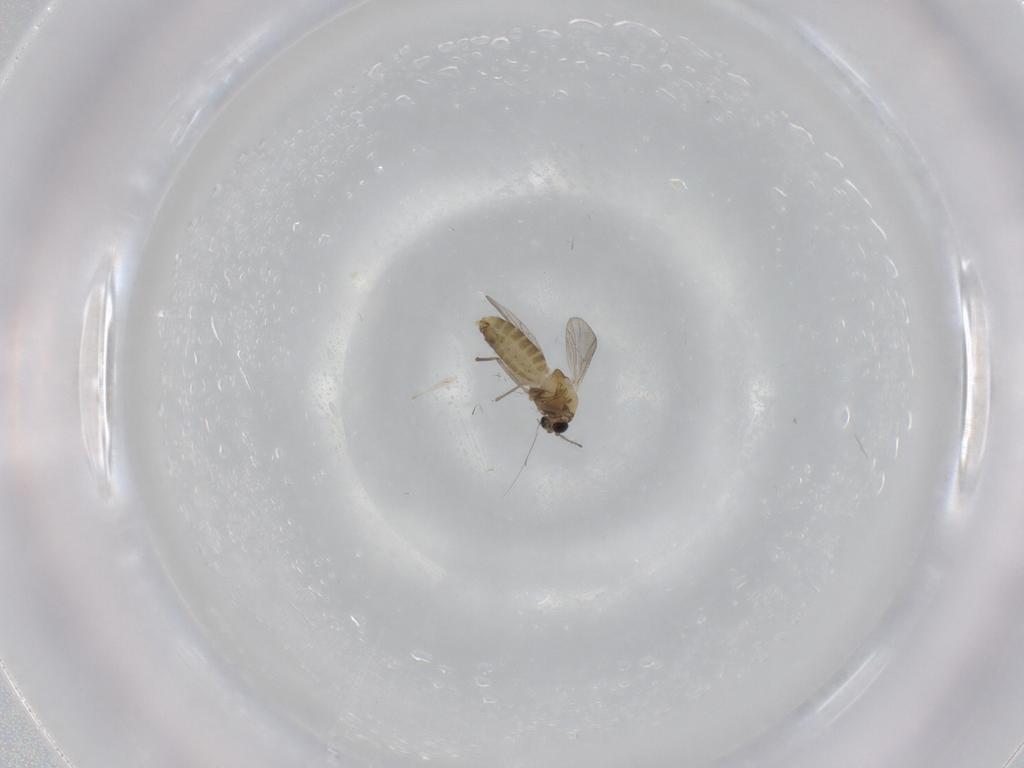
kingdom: Animalia
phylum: Arthropoda
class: Insecta
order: Diptera
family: Chironomidae
